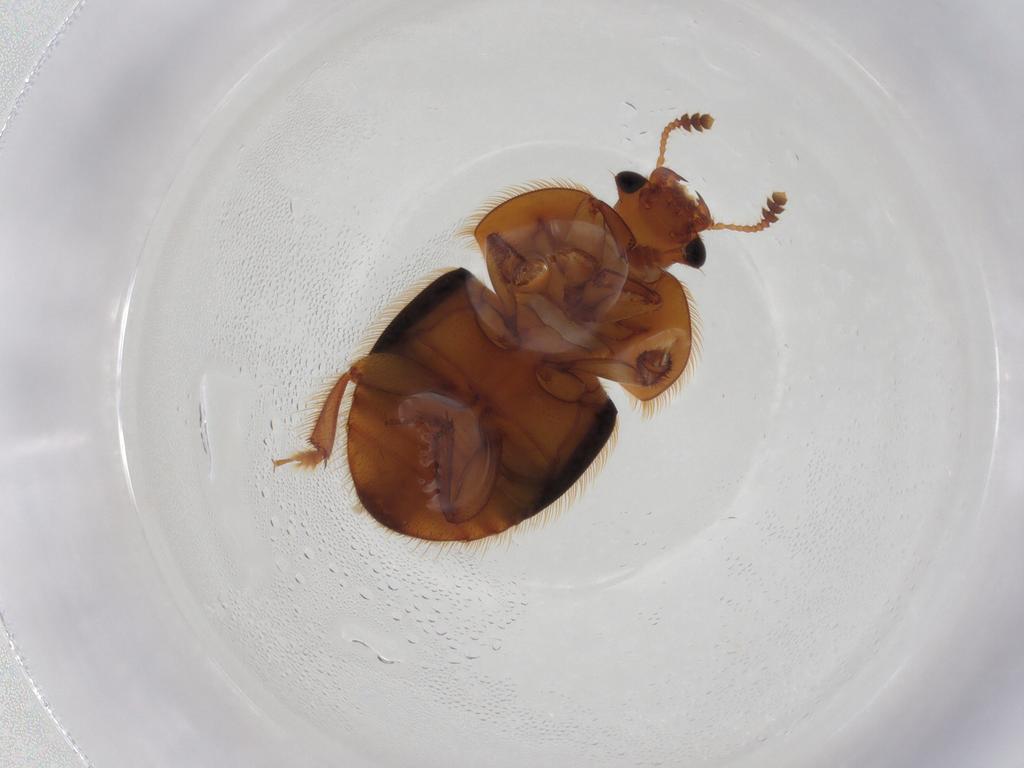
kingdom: Animalia
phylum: Arthropoda
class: Insecta
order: Coleoptera
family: Nitidulidae
